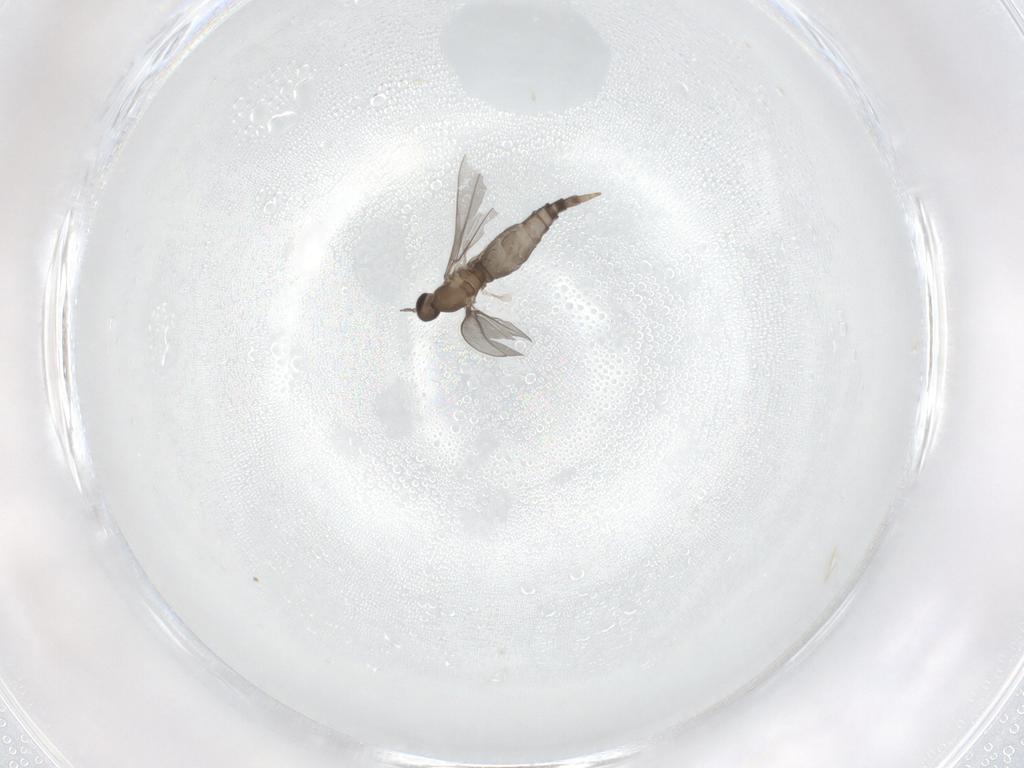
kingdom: Animalia
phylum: Arthropoda
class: Insecta
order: Diptera
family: Cecidomyiidae
